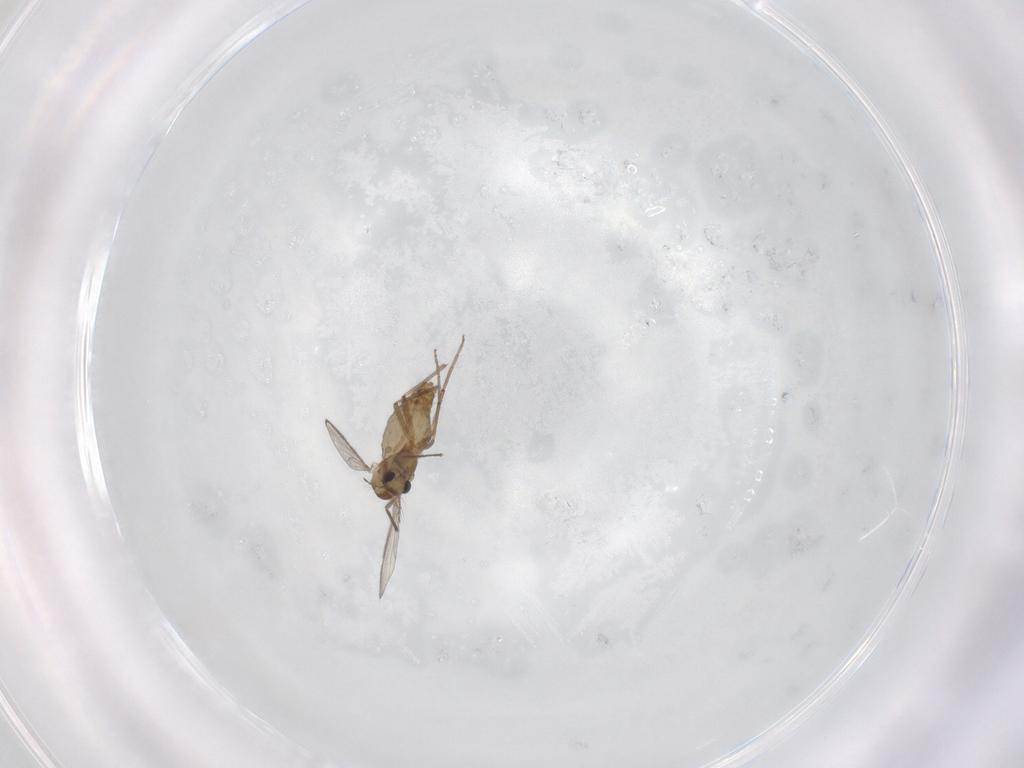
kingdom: Animalia
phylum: Arthropoda
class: Insecta
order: Diptera
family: Chironomidae
